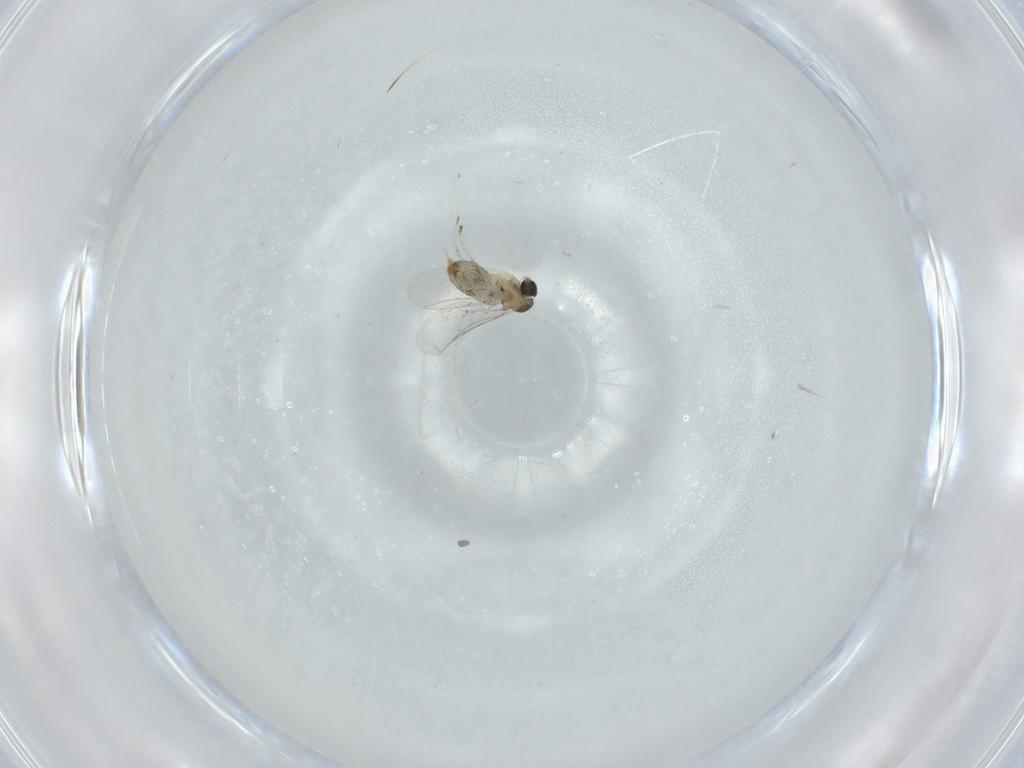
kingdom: Animalia
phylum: Arthropoda
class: Insecta
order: Diptera
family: Cecidomyiidae
